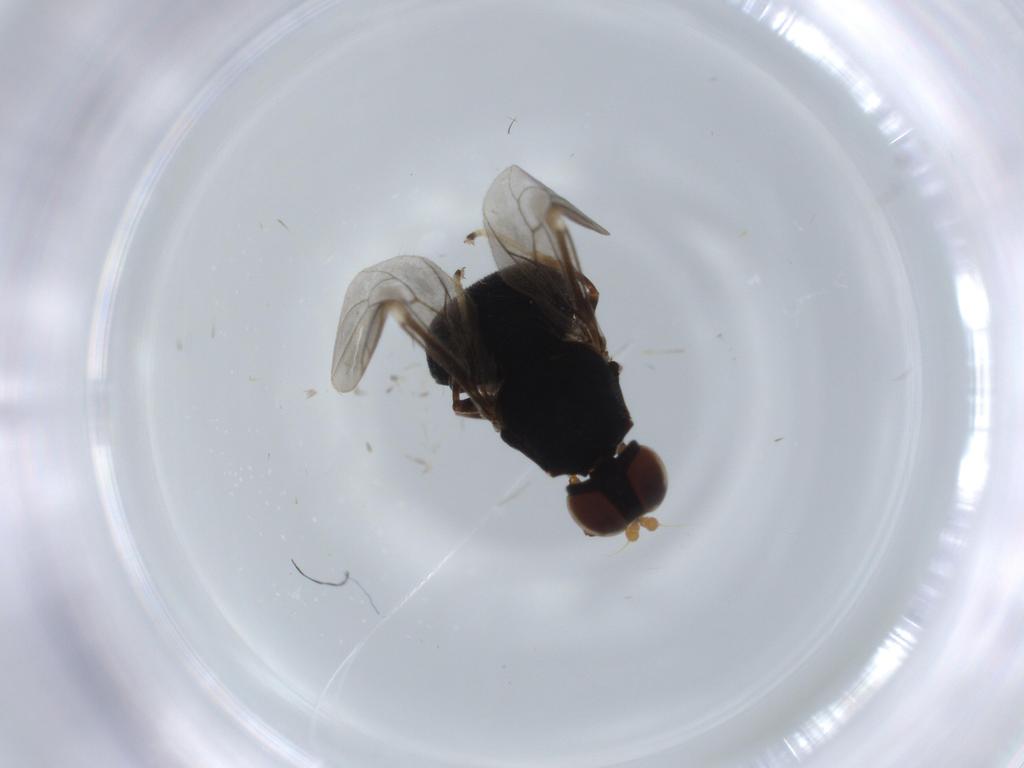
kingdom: Animalia
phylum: Arthropoda
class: Insecta
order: Diptera
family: Stratiomyidae
